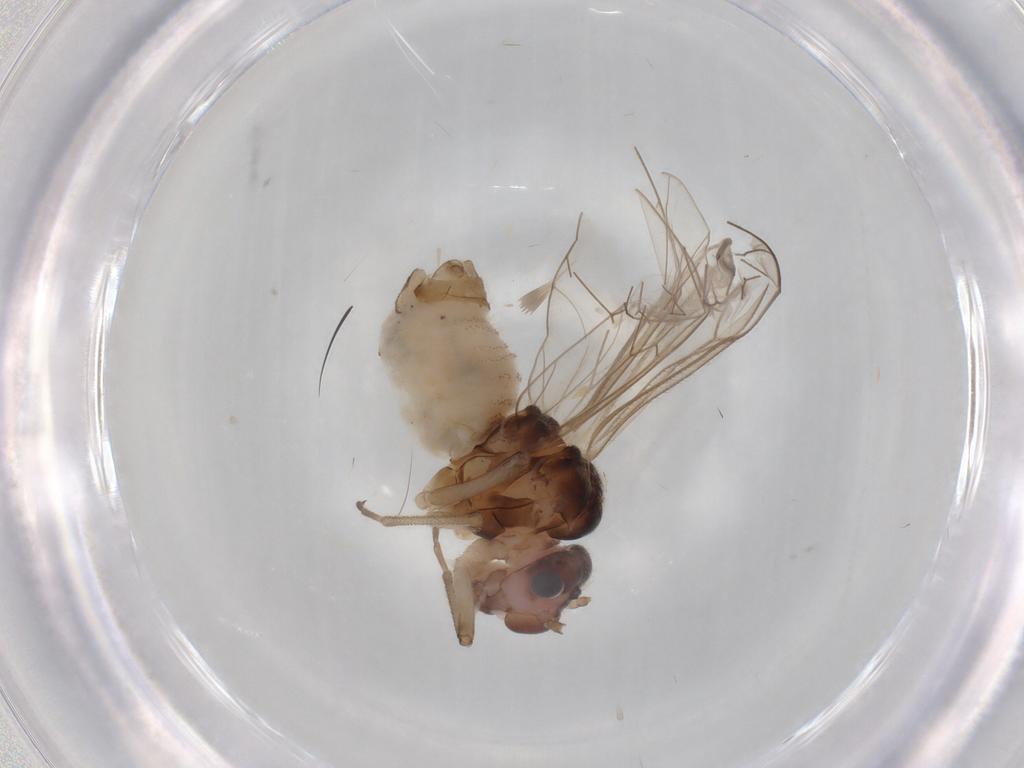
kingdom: Animalia
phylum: Arthropoda
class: Insecta
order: Psocodea
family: Stenopsocidae
